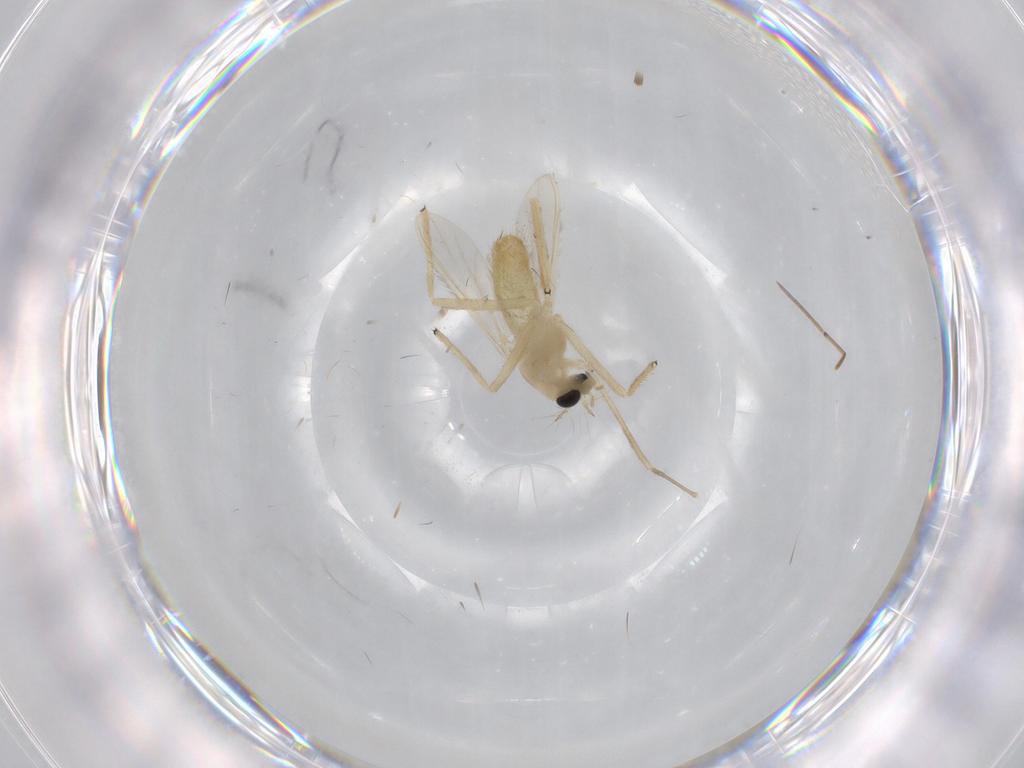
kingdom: Animalia
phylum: Arthropoda
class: Insecta
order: Diptera
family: Chironomidae
